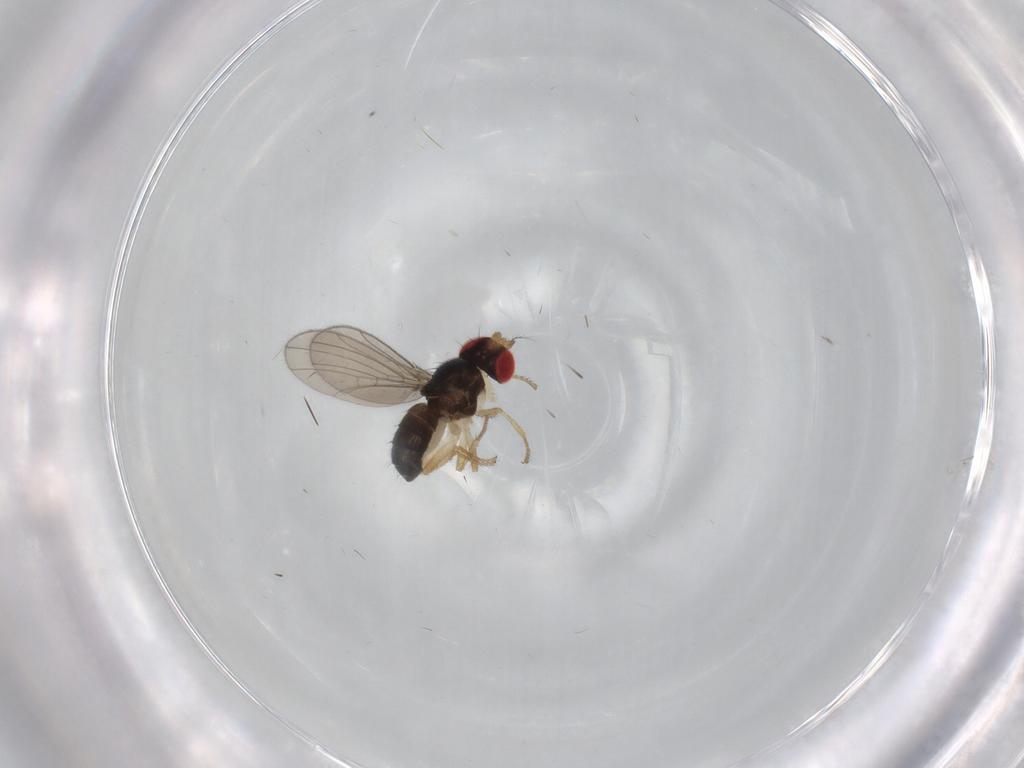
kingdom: Animalia
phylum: Arthropoda
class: Insecta
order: Diptera
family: Drosophilidae
